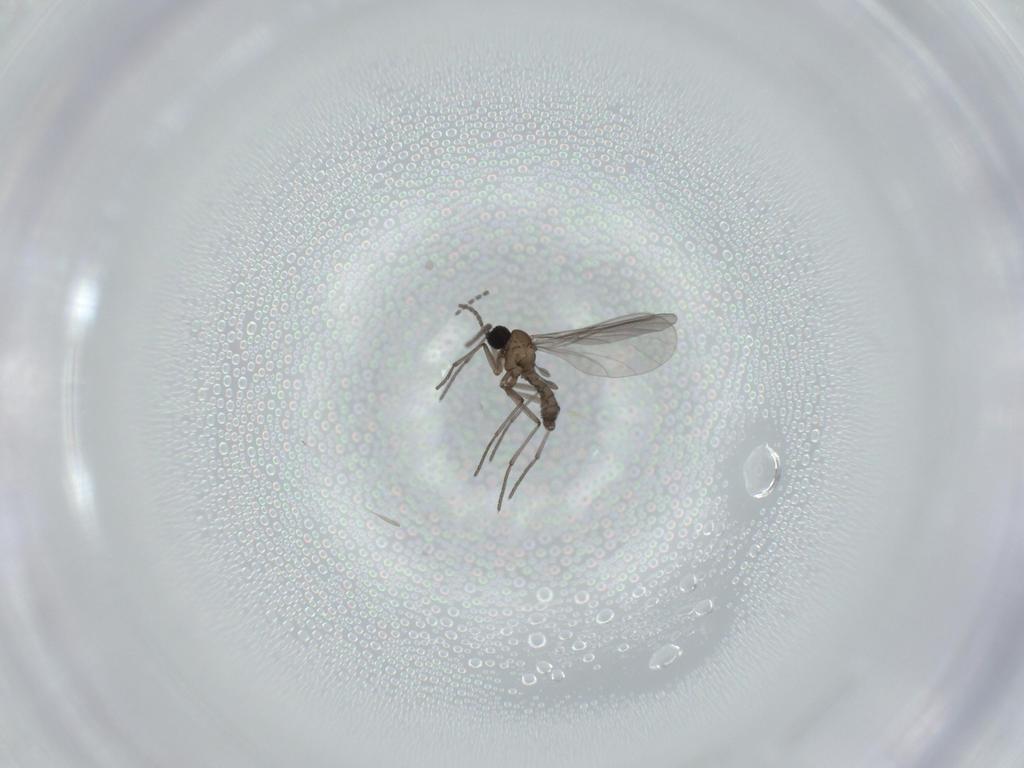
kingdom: Animalia
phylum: Arthropoda
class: Insecta
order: Diptera
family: Sciaridae
